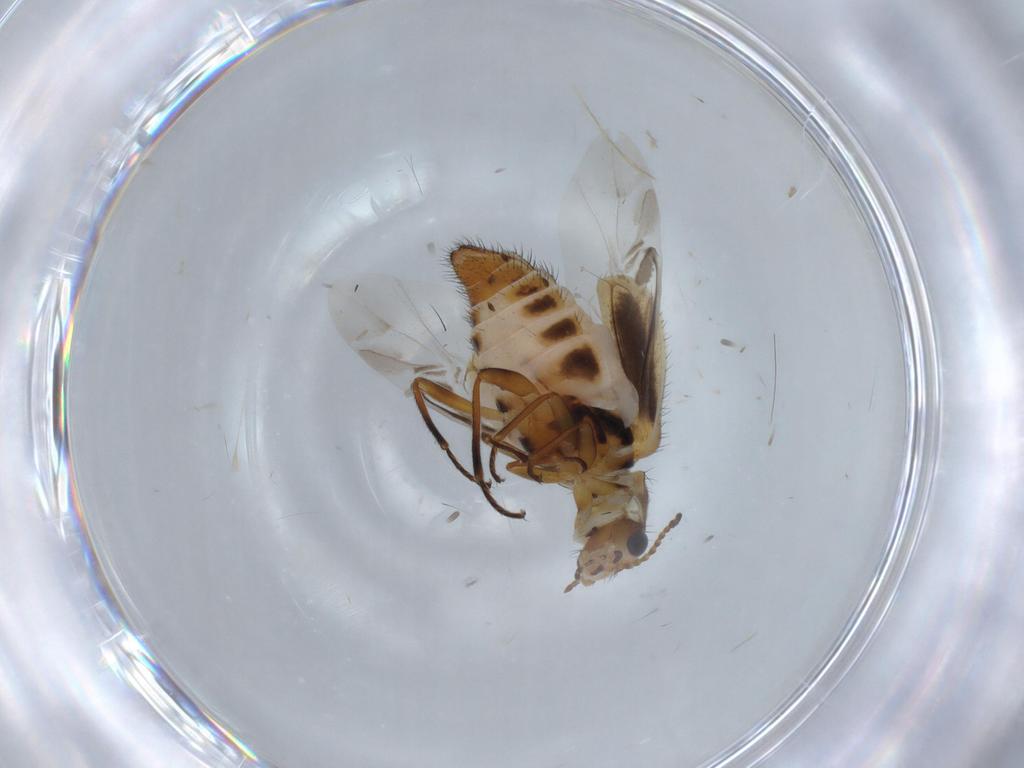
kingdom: Animalia
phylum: Arthropoda
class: Insecta
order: Coleoptera
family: Melyridae
